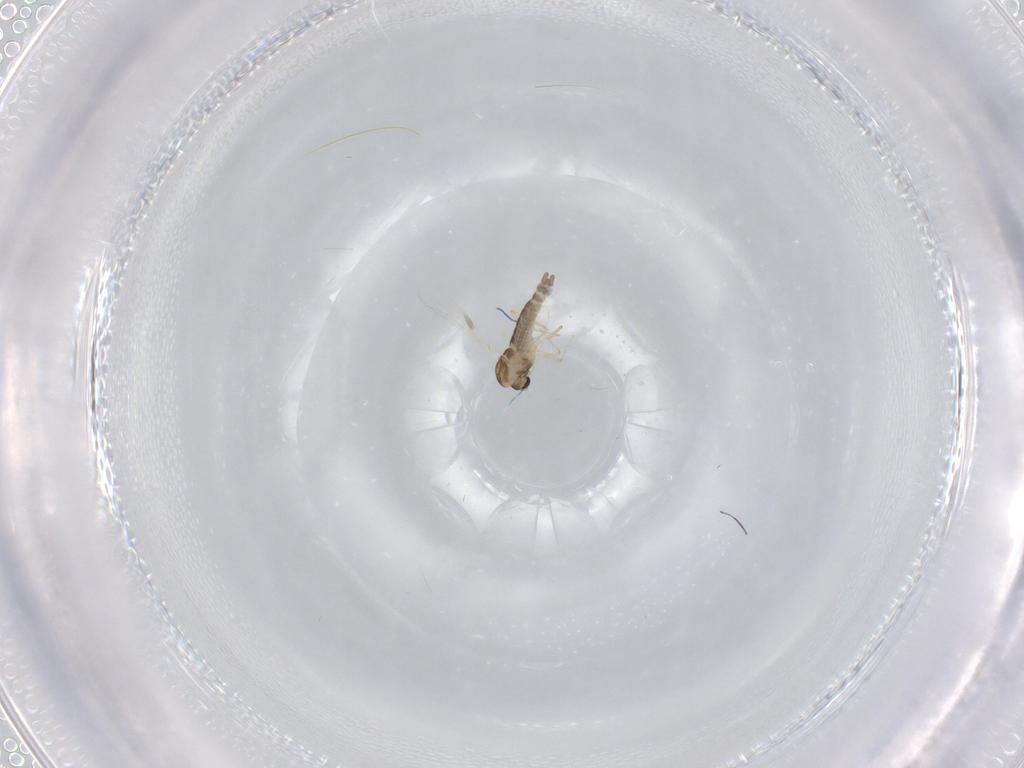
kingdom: Animalia
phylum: Arthropoda
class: Insecta
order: Diptera
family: Chironomidae
